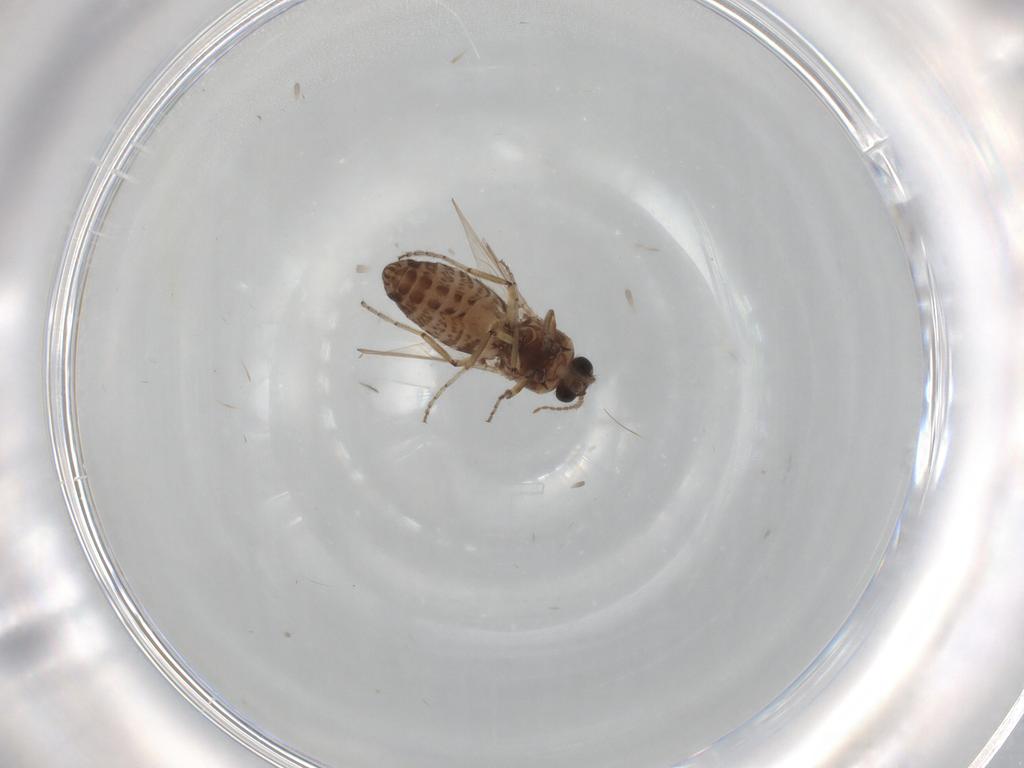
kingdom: Animalia
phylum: Arthropoda
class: Insecta
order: Diptera
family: Ceratopogonidae
